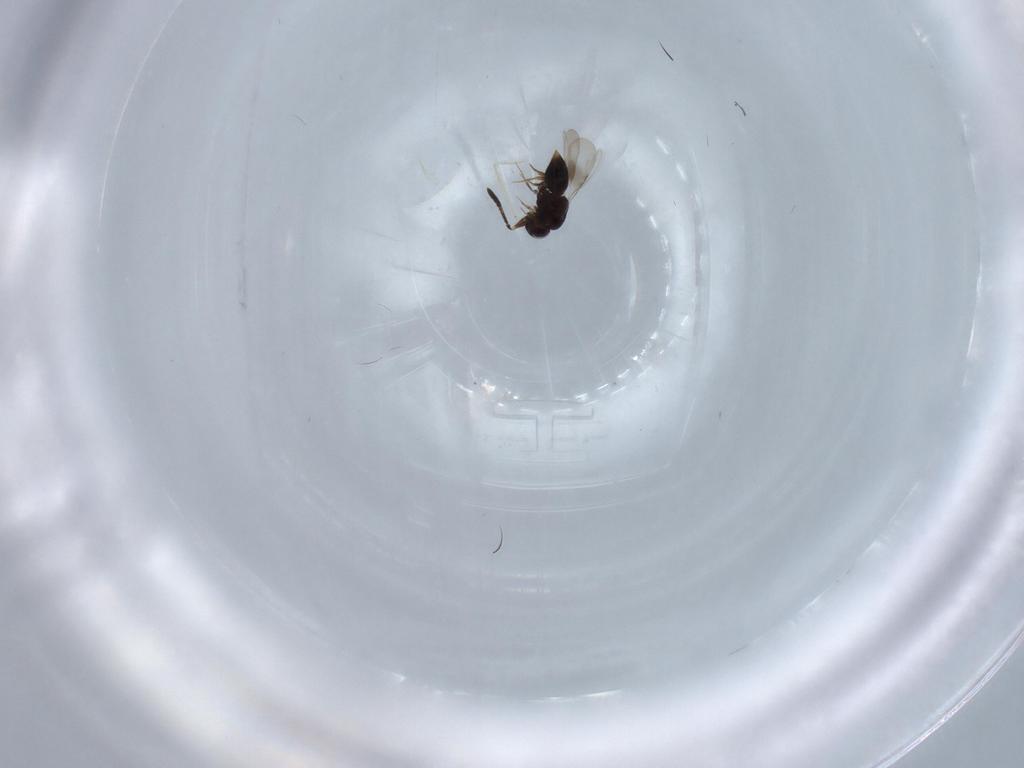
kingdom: Animalia
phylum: Arthropoda
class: Insecta
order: Hymenoptera
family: Ceraphronidae
